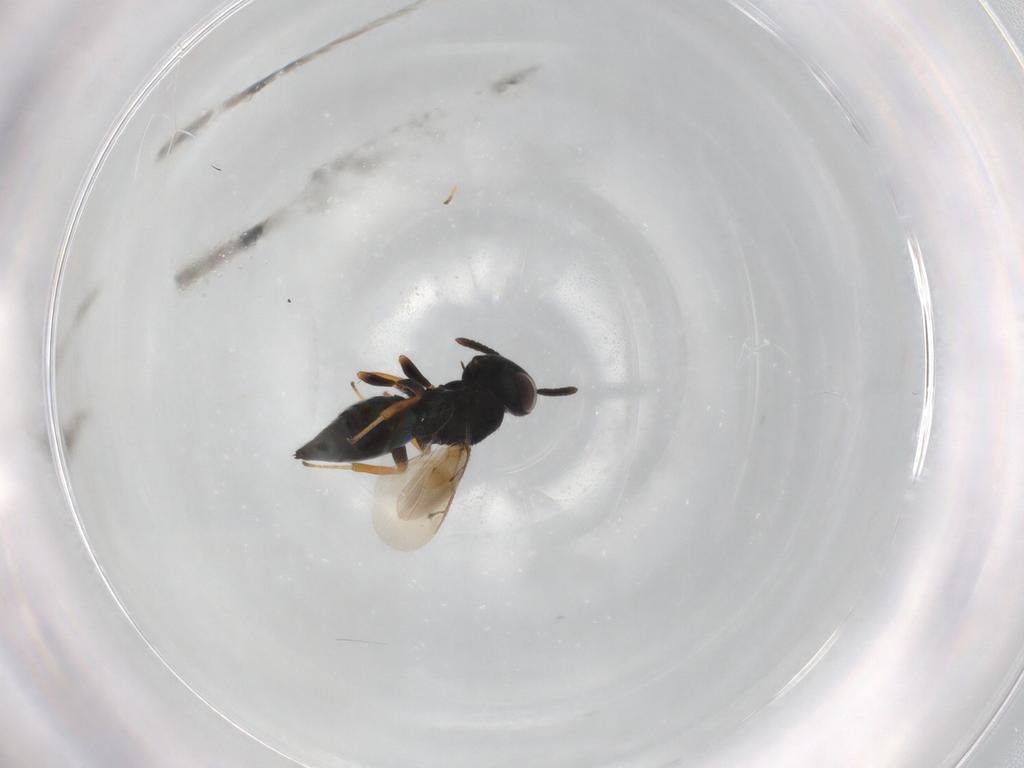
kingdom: Animalia
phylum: Arthropoda
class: Insecta
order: Hymenoptera
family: Pteromalidae
